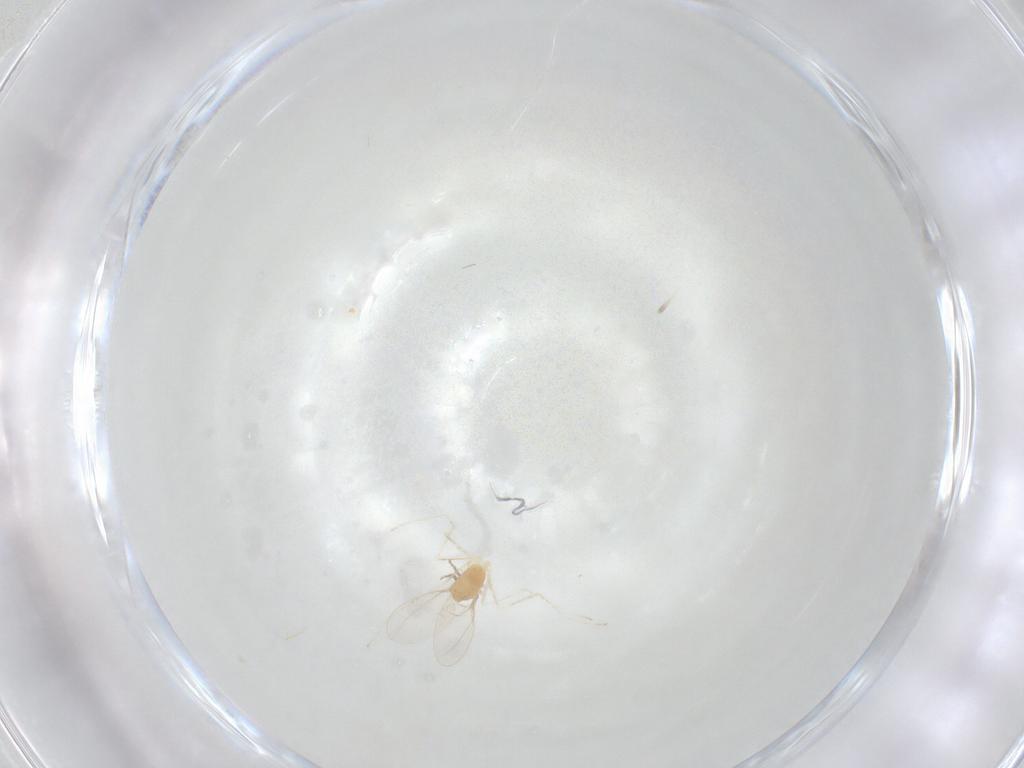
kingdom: Animalia
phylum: Arthropoda
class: Insecta
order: Diptera
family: Cecidomyiidae
